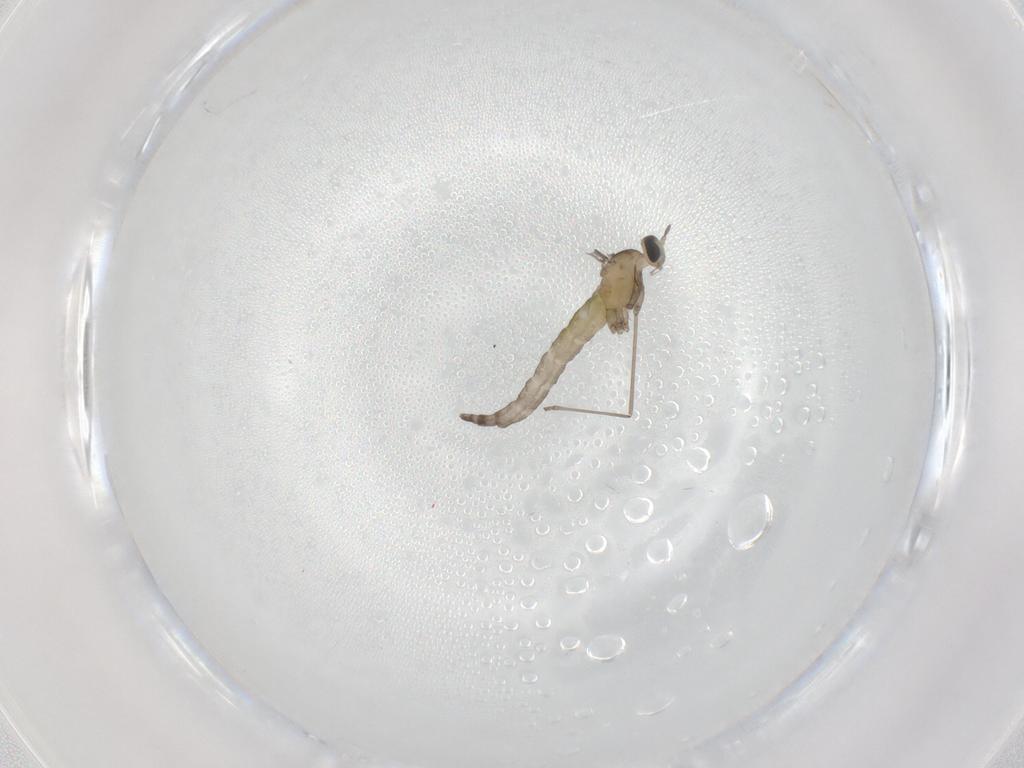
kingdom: Animalia
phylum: Arthropoda
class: Insecta
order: Diptera
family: Cecidomyiidae
